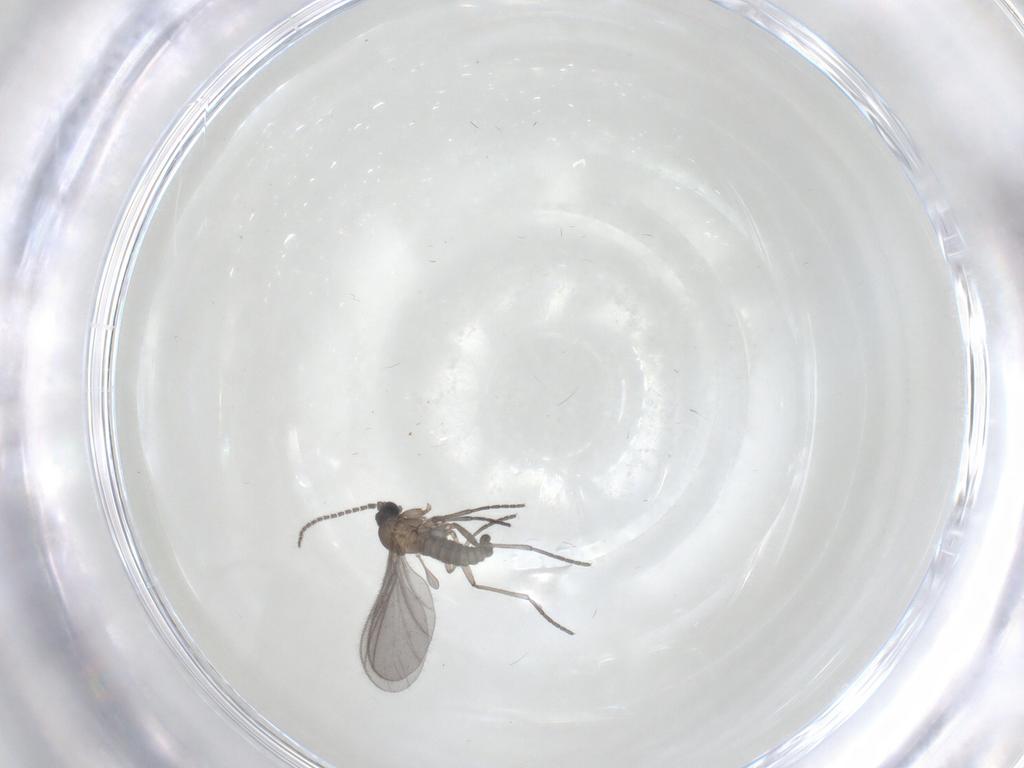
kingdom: Animalia
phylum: Arthropoda
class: Insecta
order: Diptera
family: Sciaridae
